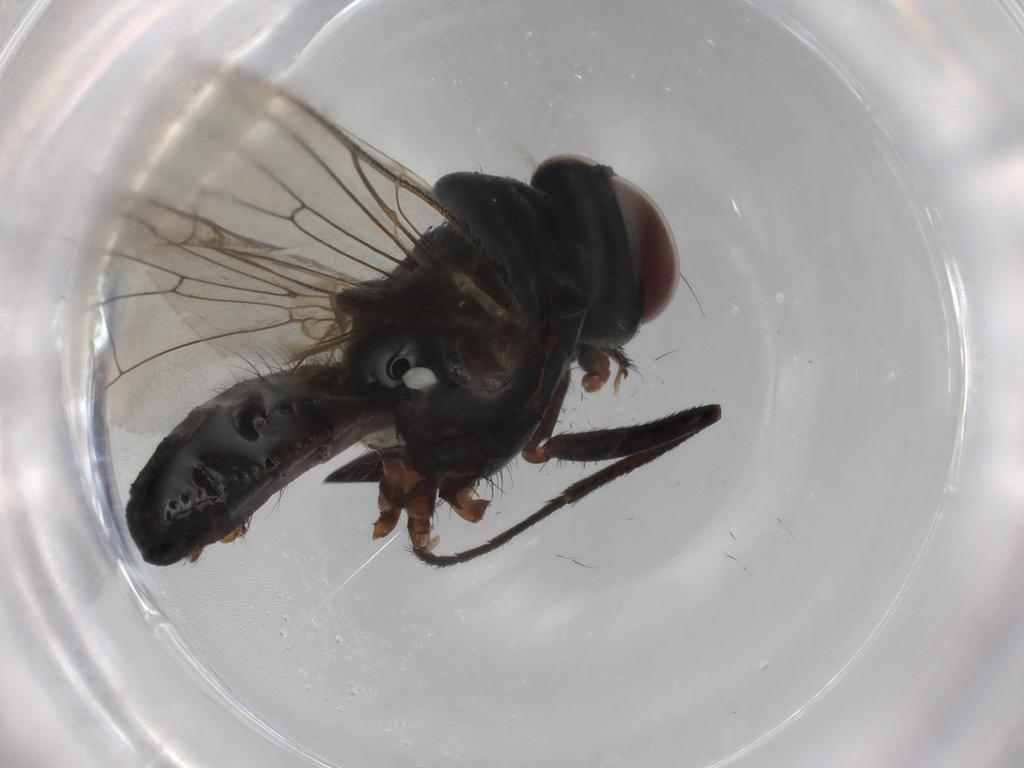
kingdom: Animalia
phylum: Arthropoda
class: Insecta
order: Diptera
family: Anthomyiidae
